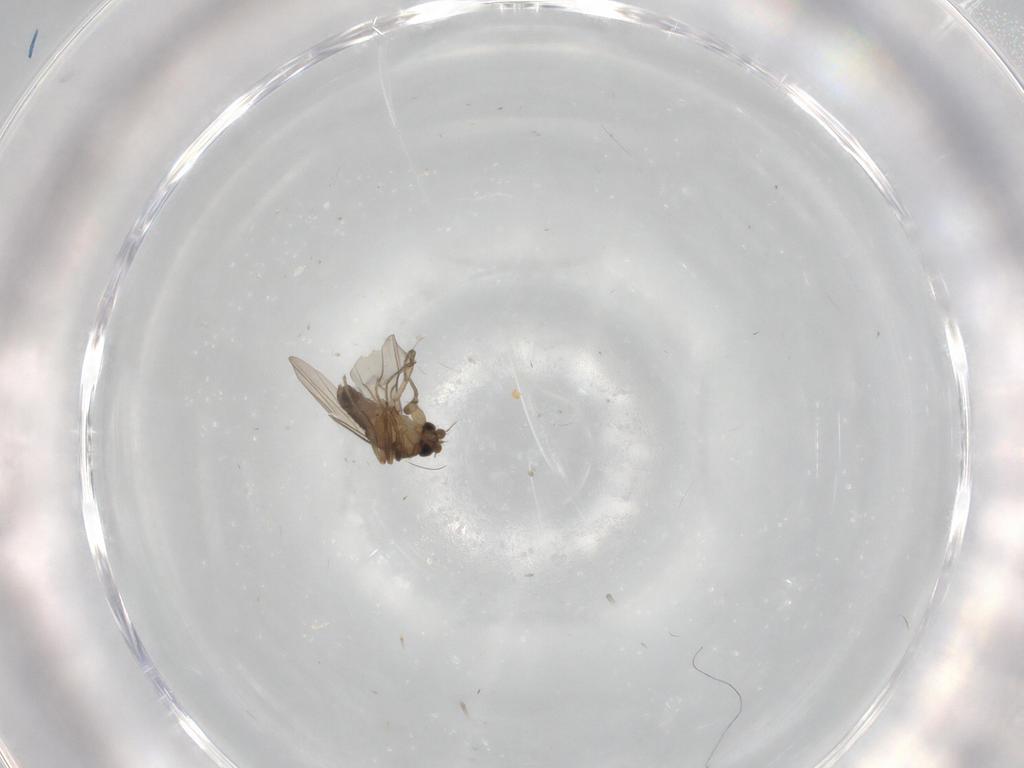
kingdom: Animalia
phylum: Arthropoda
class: Insecta
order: Diptera
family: Phoridae
